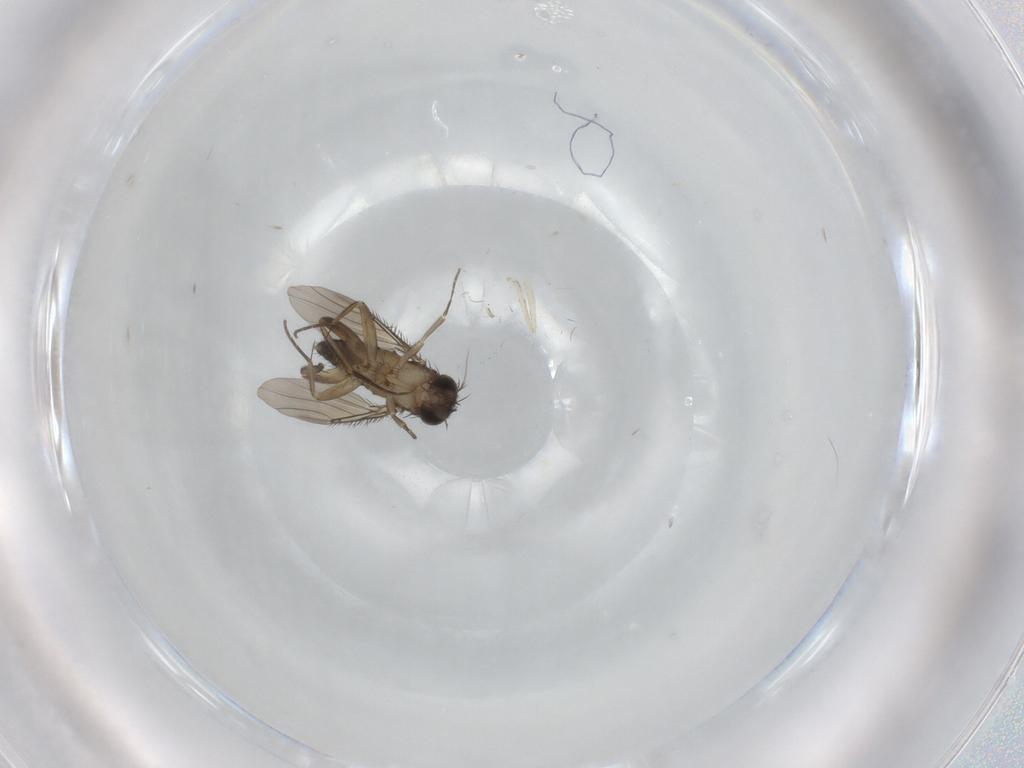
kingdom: Animalia
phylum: Arthropoda
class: Insecta
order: Diptera
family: Phoridae
